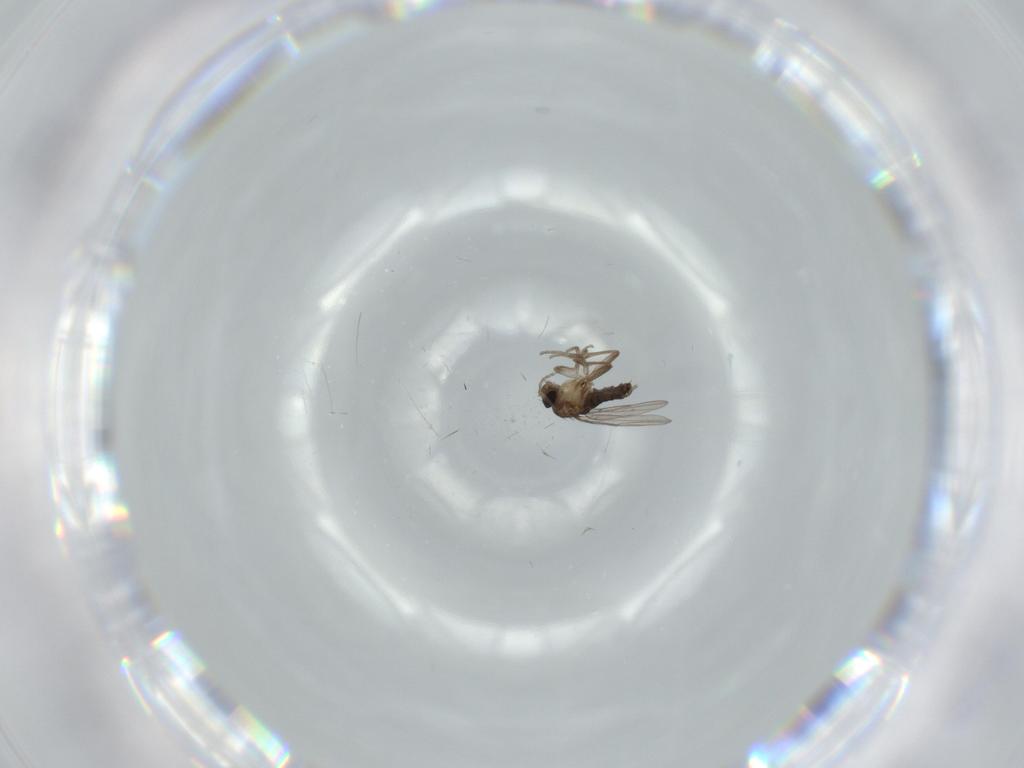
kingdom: Animalia
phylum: Arthropoda
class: Insecta
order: Diptera
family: Phoridae
